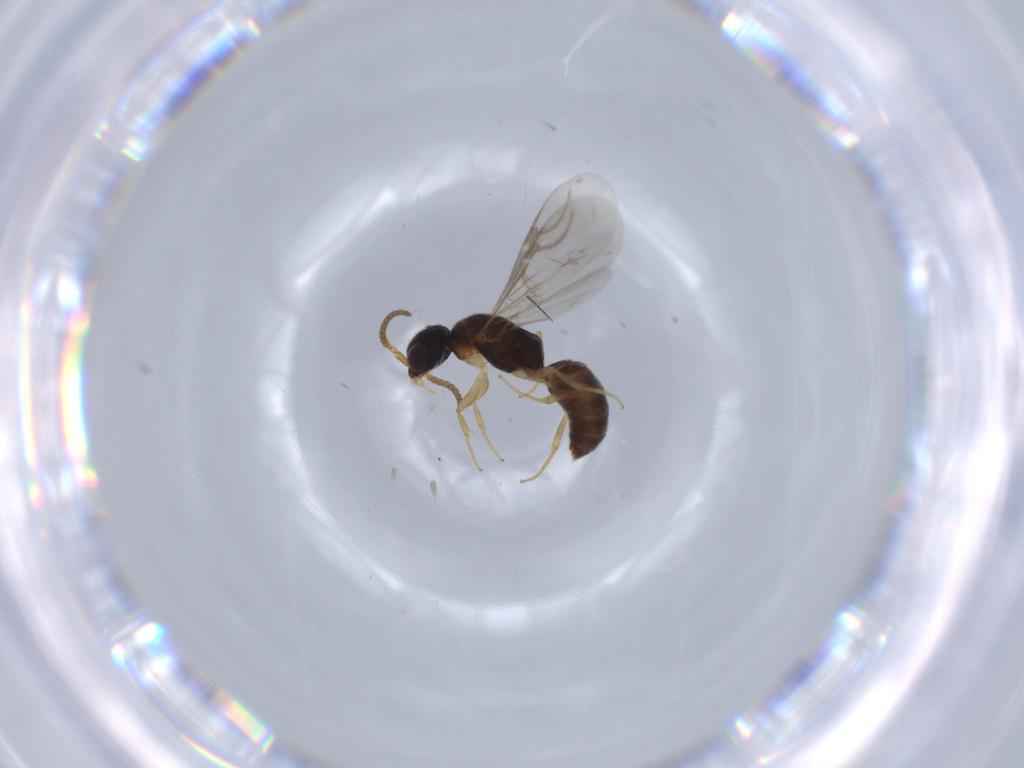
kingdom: Animalia
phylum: Arthropoda
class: Insecta
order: Hymenoptera
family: Bethylidae
